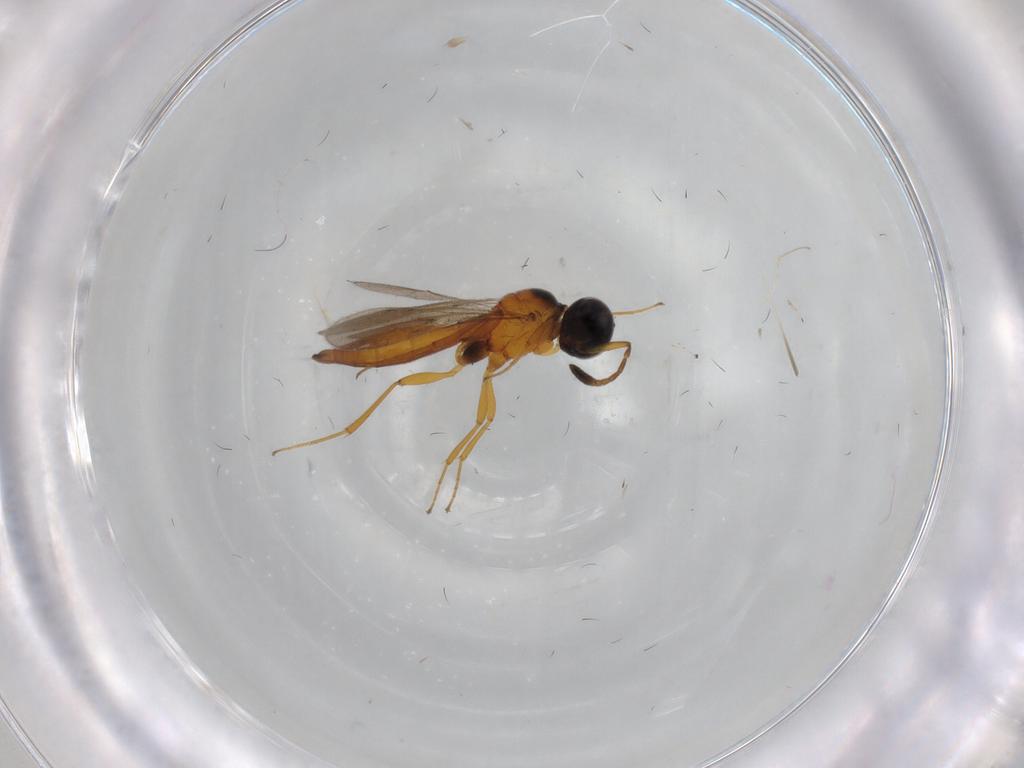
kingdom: Animalia
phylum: Arthropoda
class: Insecta
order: Hymenoptera
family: Scelionidae
